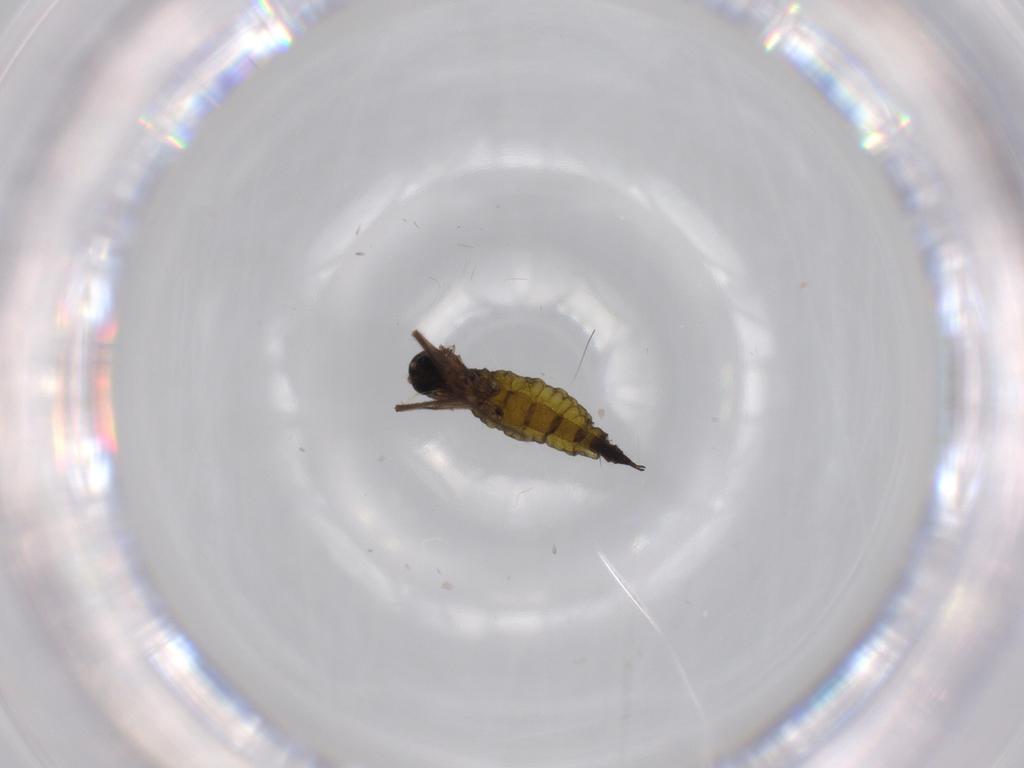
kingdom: Animalia
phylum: Arthropoda
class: Insecta
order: Diptera
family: Sciaridae
